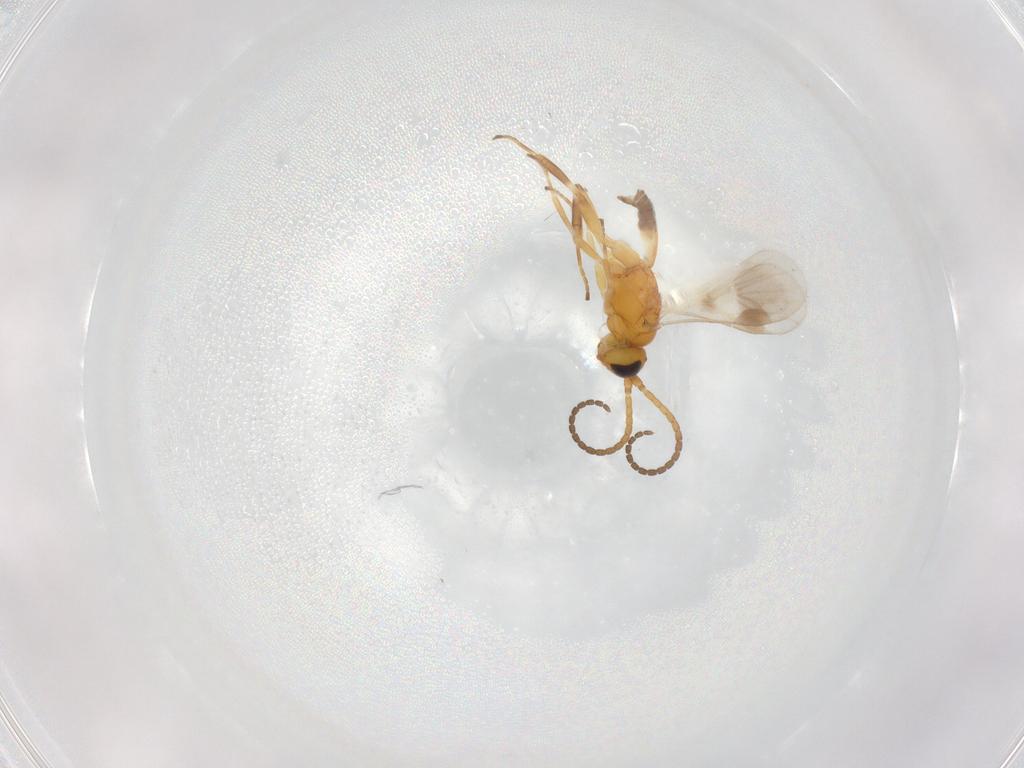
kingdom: Animalia
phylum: Arthropoda
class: Insecta
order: Hymenoptera
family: Braconidae
